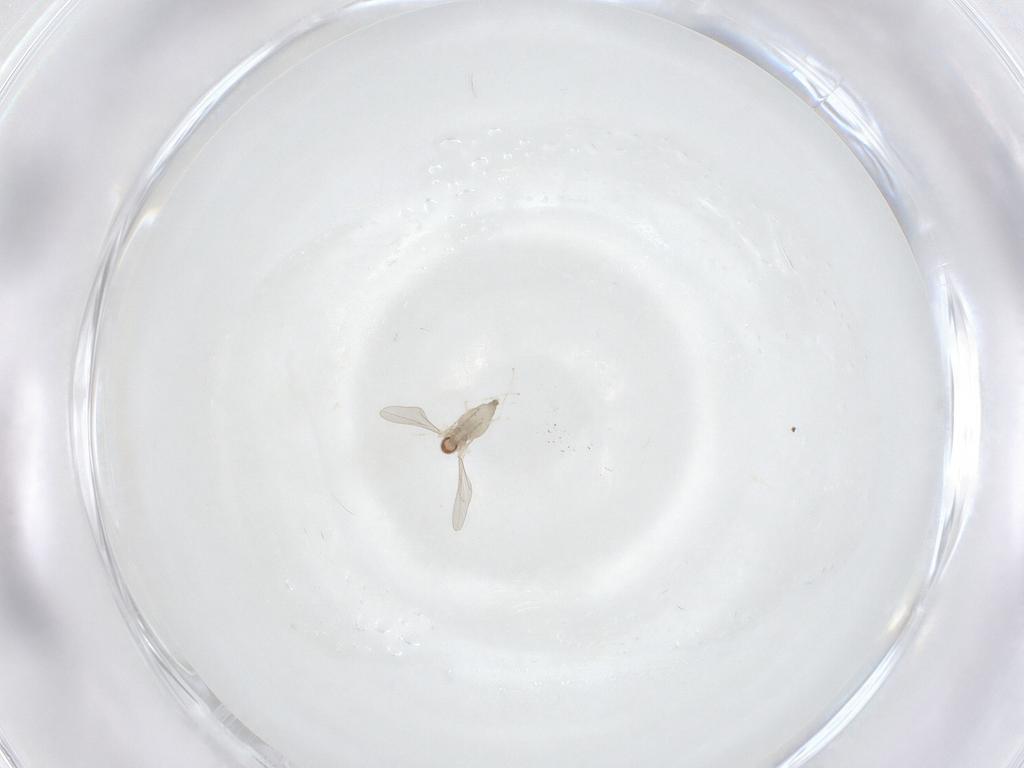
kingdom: Animalia
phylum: Arthropoda
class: Insecta
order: Diptera
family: Cecidomyiidae
